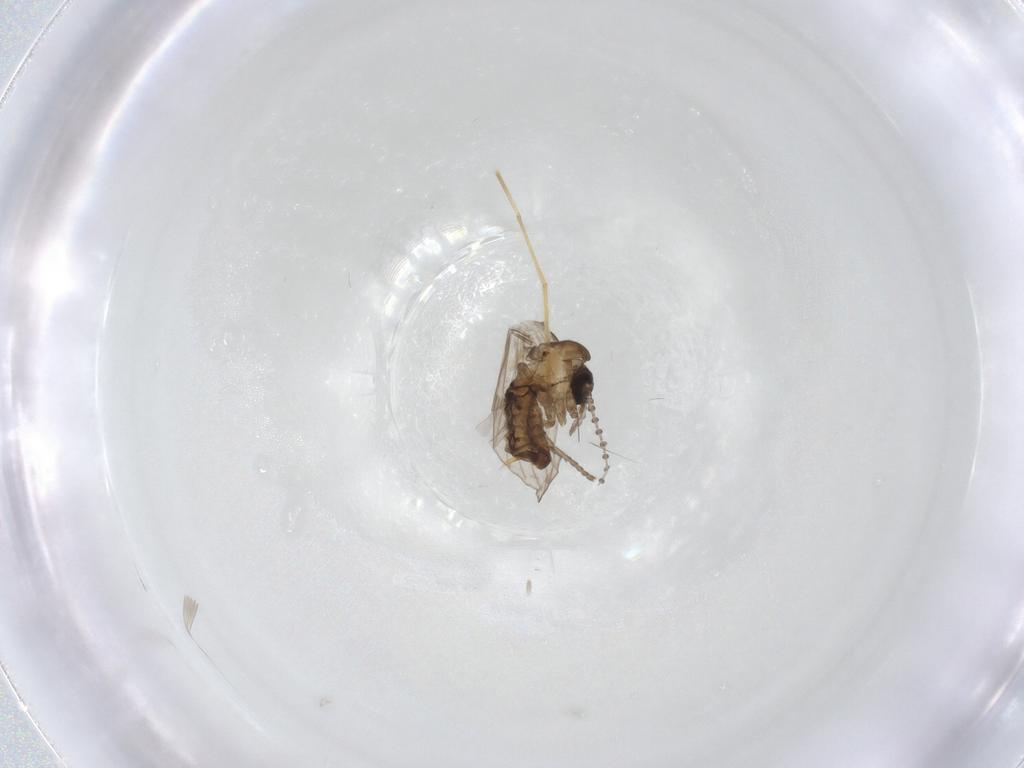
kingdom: Animalia
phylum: Arthropoda
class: Insecta
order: Diptera
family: Psychodidae
